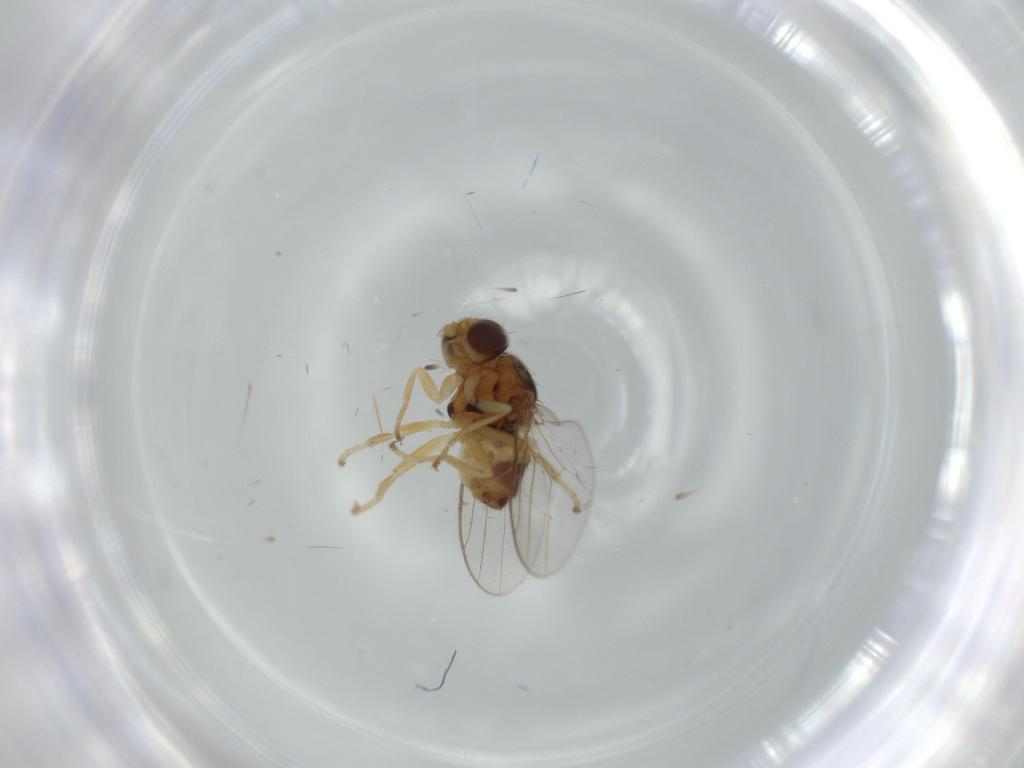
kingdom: Animalia
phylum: Arthropoda
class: Insecta
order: Diptera
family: Chloropidae
